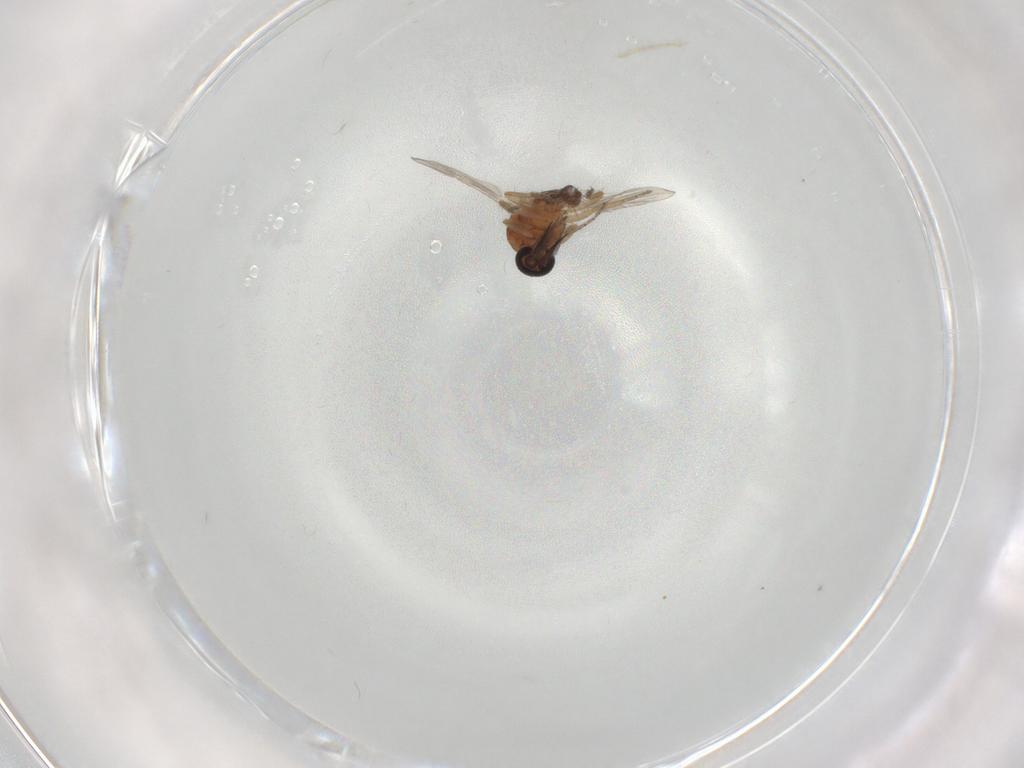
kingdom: Animalia
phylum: Arthropoda
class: Insecta
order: Diptera
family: Ceratopogonidae
